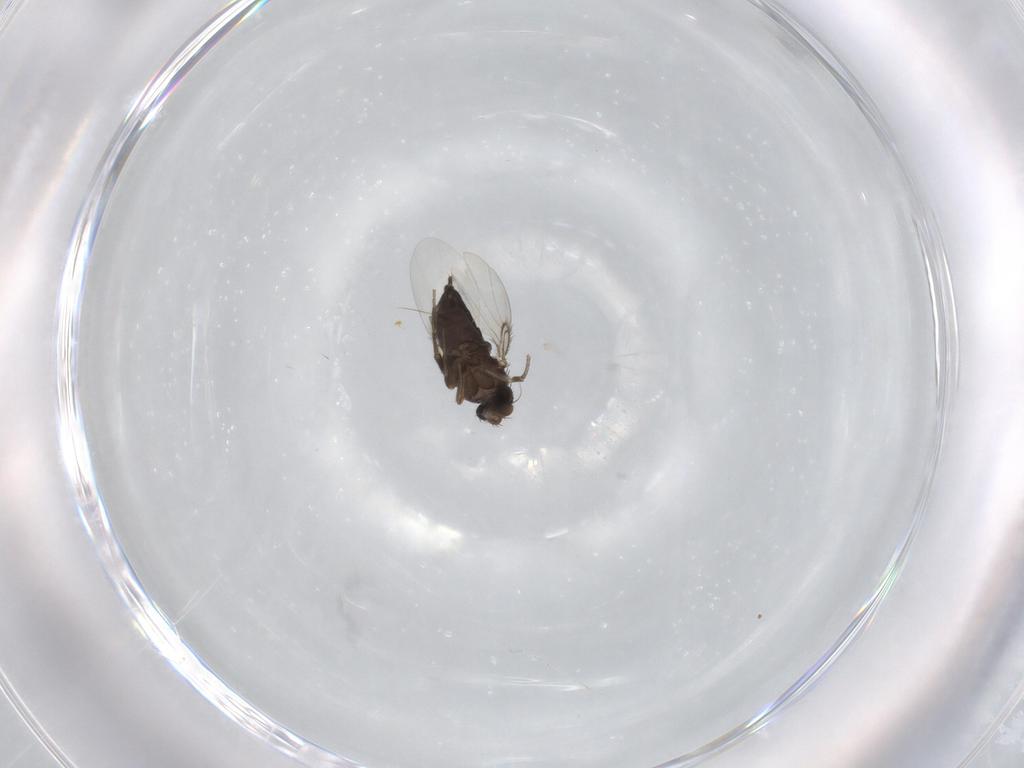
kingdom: Animalia
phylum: Arthropoda
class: Insecta
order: Diptera
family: Phoridae
